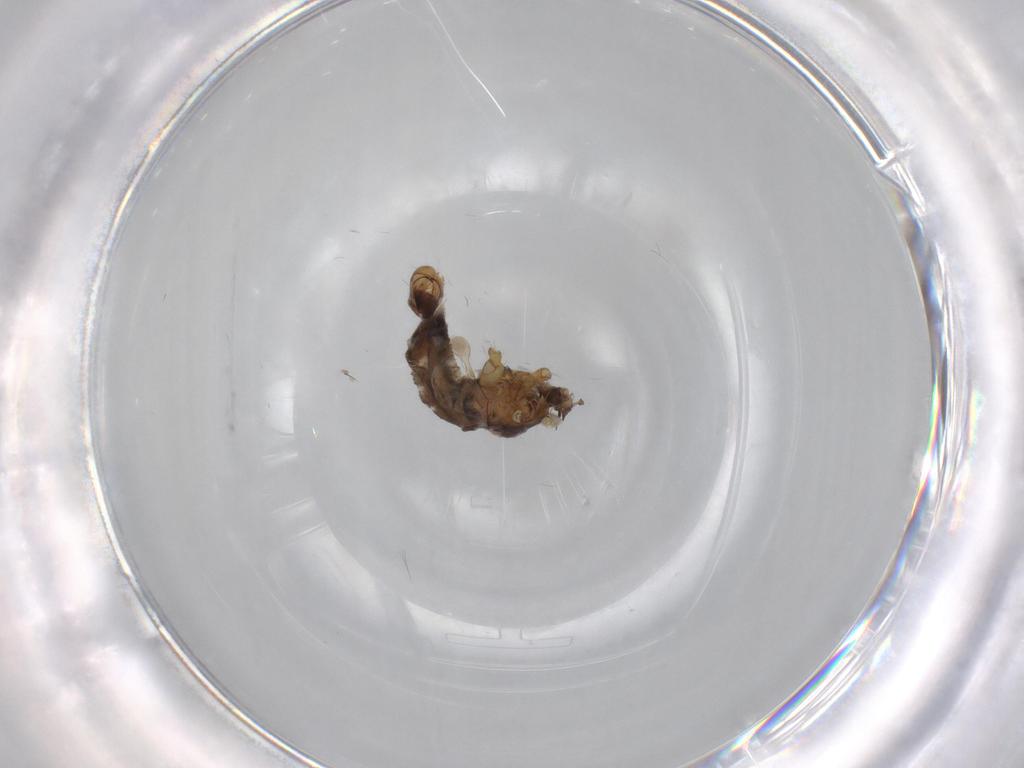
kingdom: Animalia
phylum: Arthropoda
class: Insecta
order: Diptera
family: Agromyzidae
